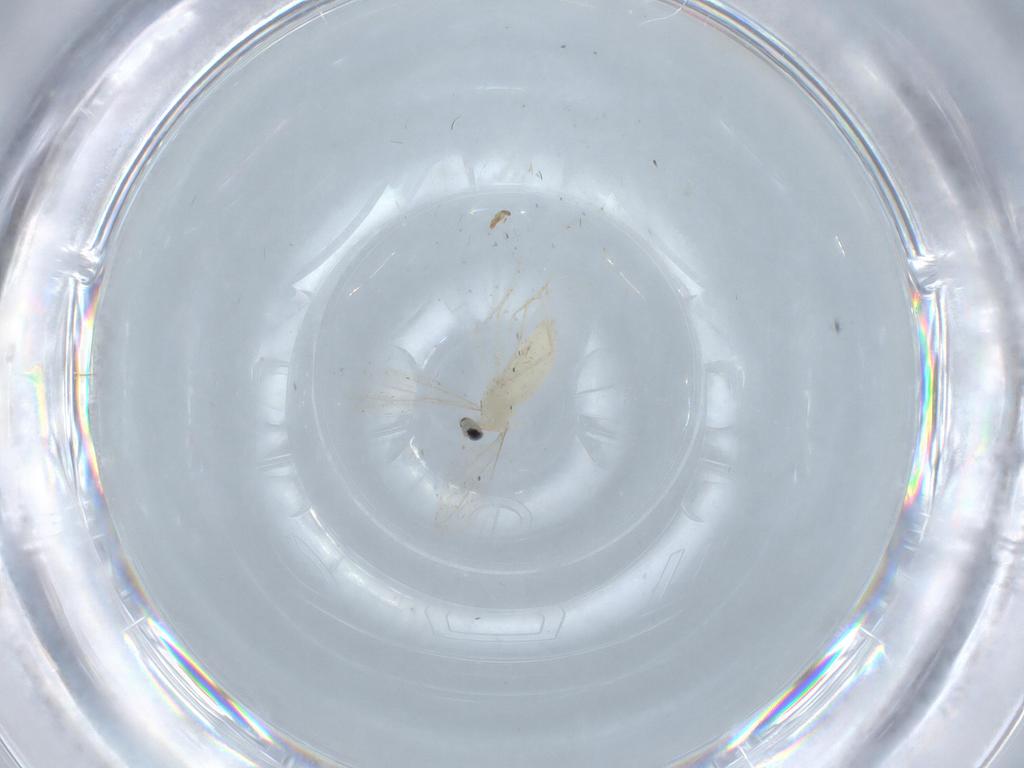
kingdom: Animalia
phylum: Arthropoda
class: Insecta
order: Diptera
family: Cecidomyiidae
